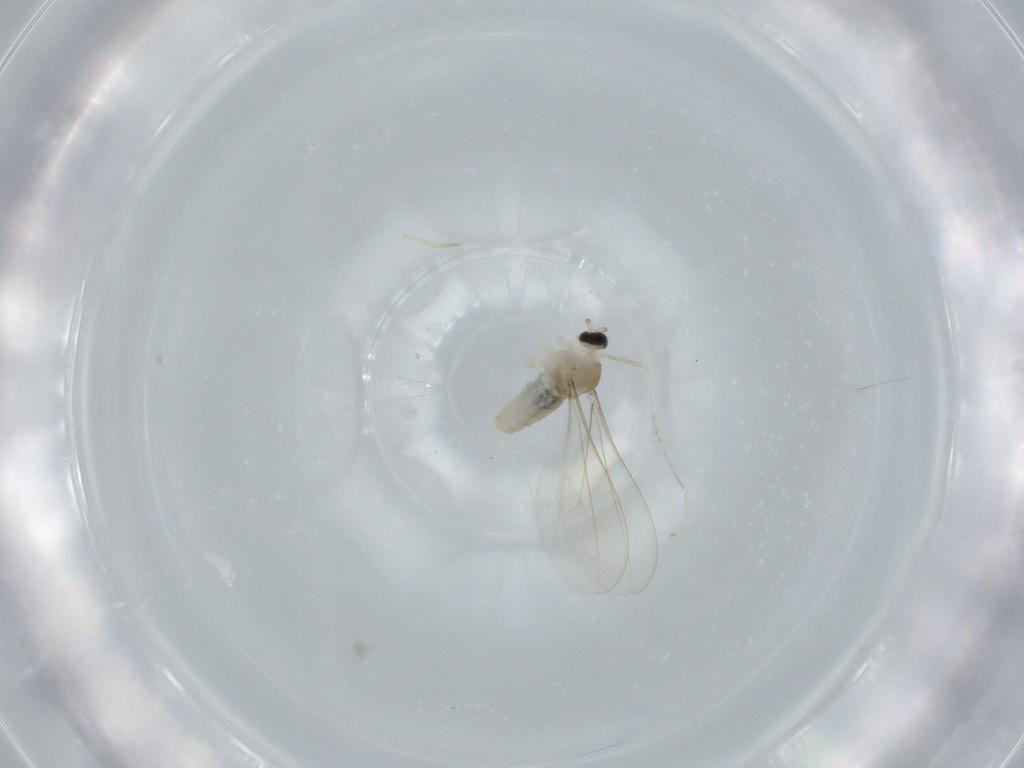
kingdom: Animalia
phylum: Arthropoda
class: Insecta
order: Diptera
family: Cecidomyiidae
